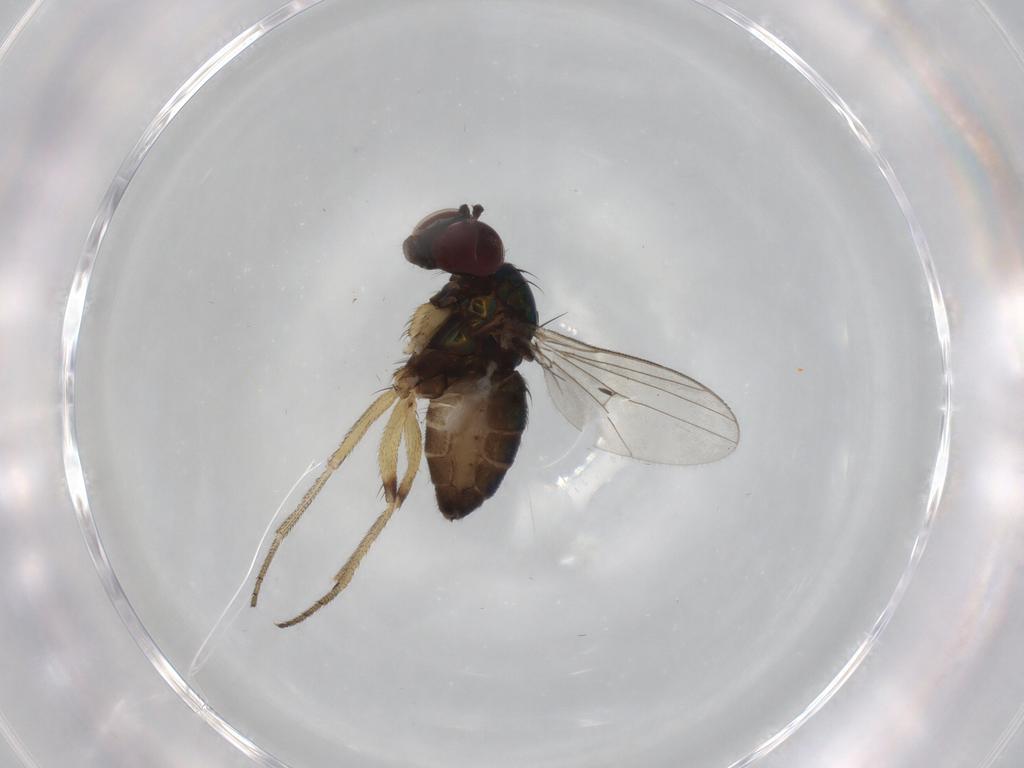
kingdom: Animalia
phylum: Arthropoda
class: Insecta
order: Diptera
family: Dolichopodidae
